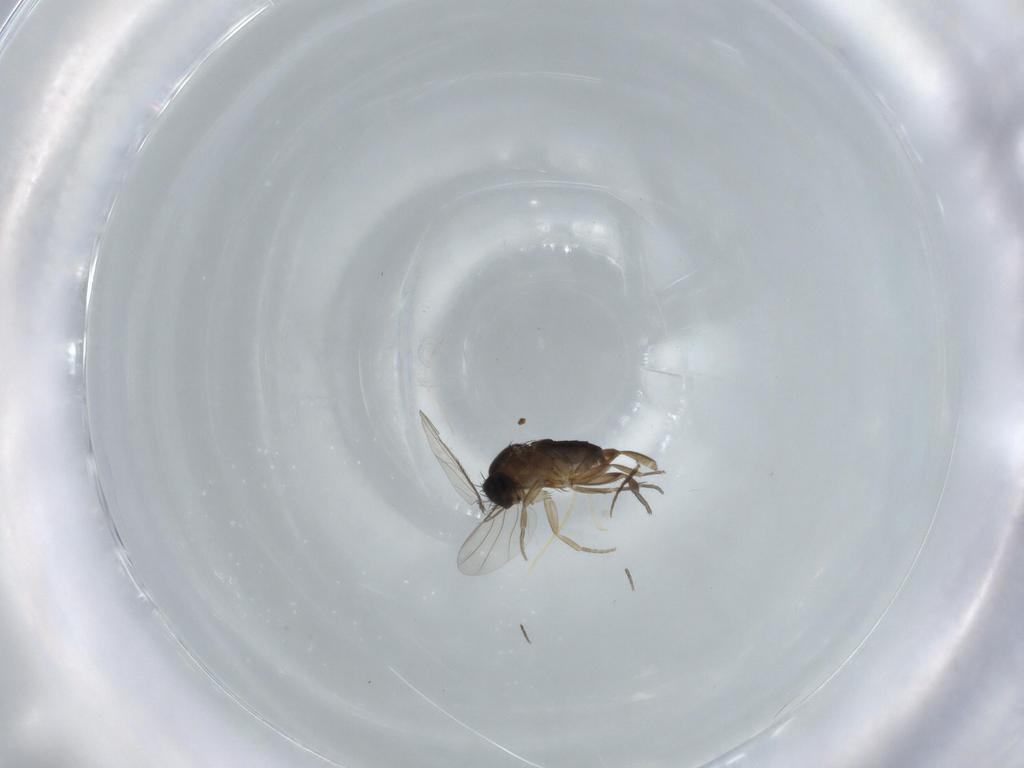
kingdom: Animalia
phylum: Arthropoda
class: Insecta
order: Diptera
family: Phoridae
